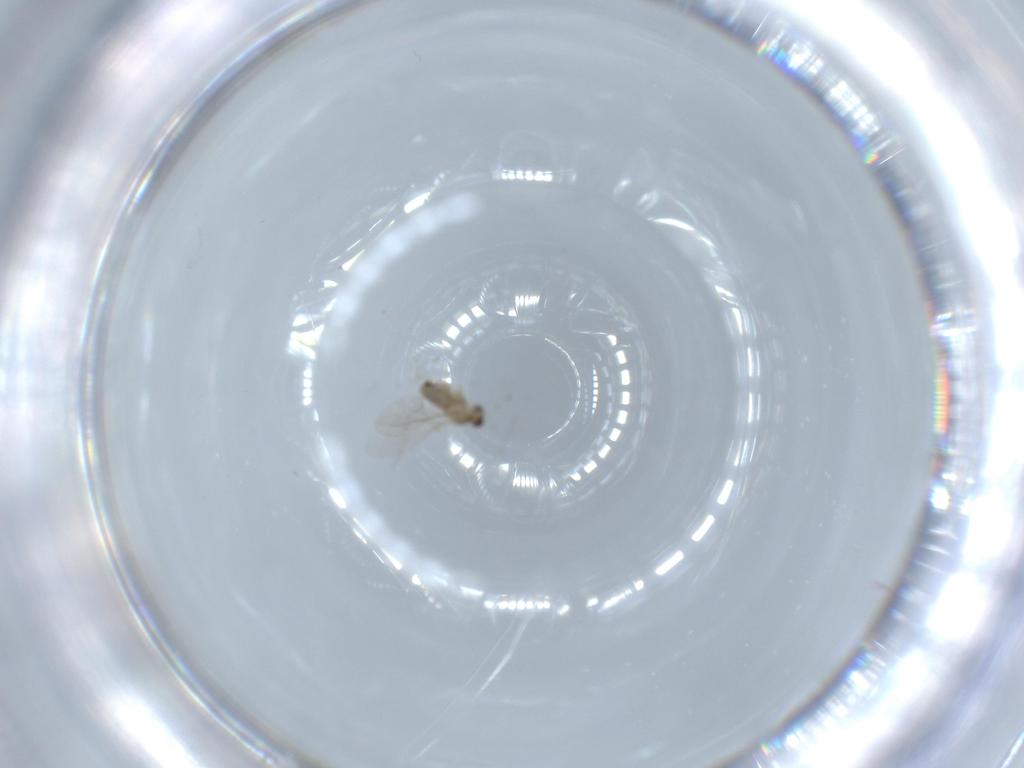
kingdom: Animalia
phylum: Arthropoda
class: Insecta
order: Diptera
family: Cecidomyiidae
